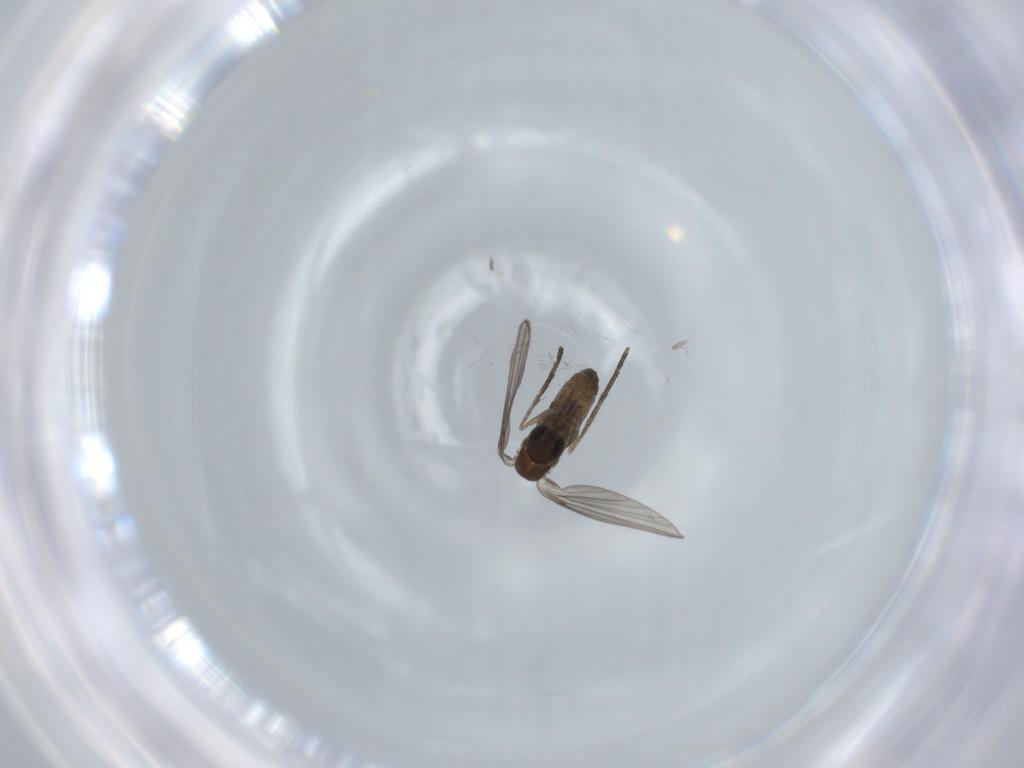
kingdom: Animalia
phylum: Arthropoda
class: Insecta
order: Diptera
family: Psychodidae
